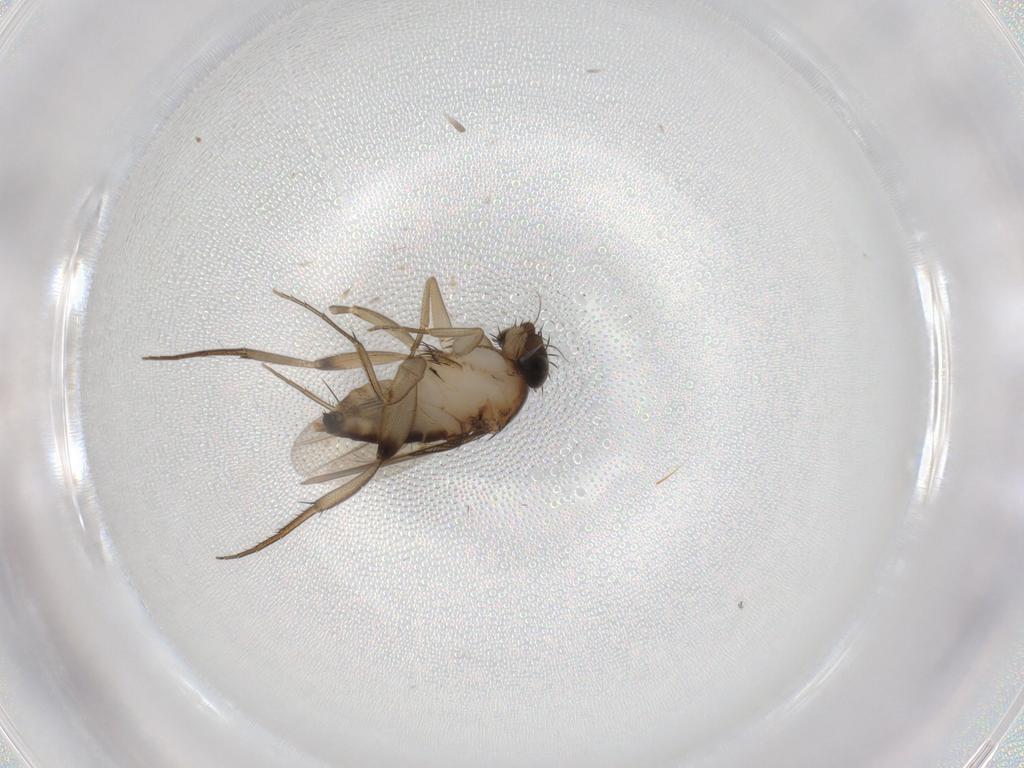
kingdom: Animalia
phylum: Arthropoda
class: Insecta
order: Diptera
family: Phoridae
